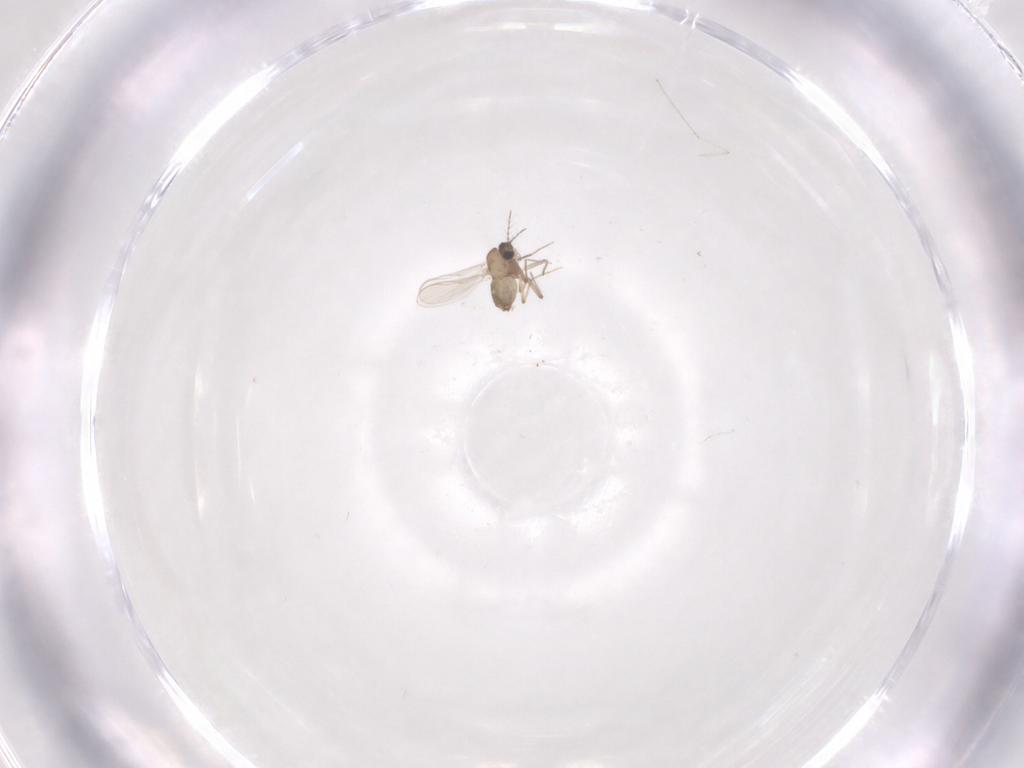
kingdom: Animalia
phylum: Arthropoda
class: Insecta
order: Diptera
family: Chironomidae
